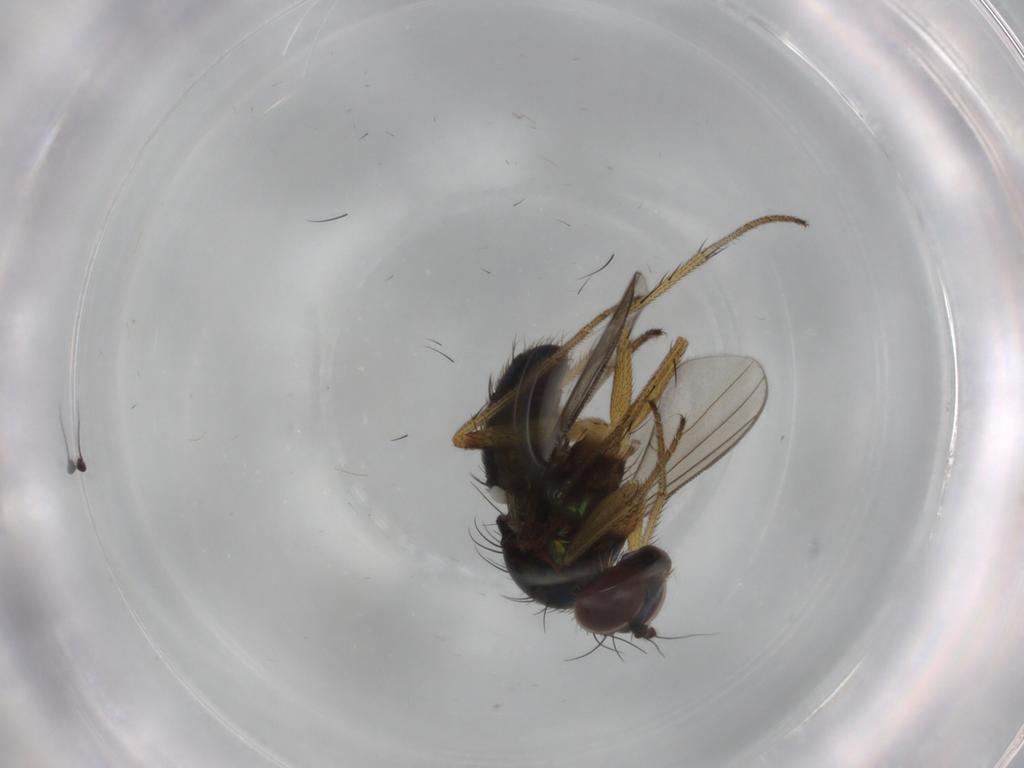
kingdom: Animalia
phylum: Arthropoda
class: Insecta
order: Diptera
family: Dolichopodidae
